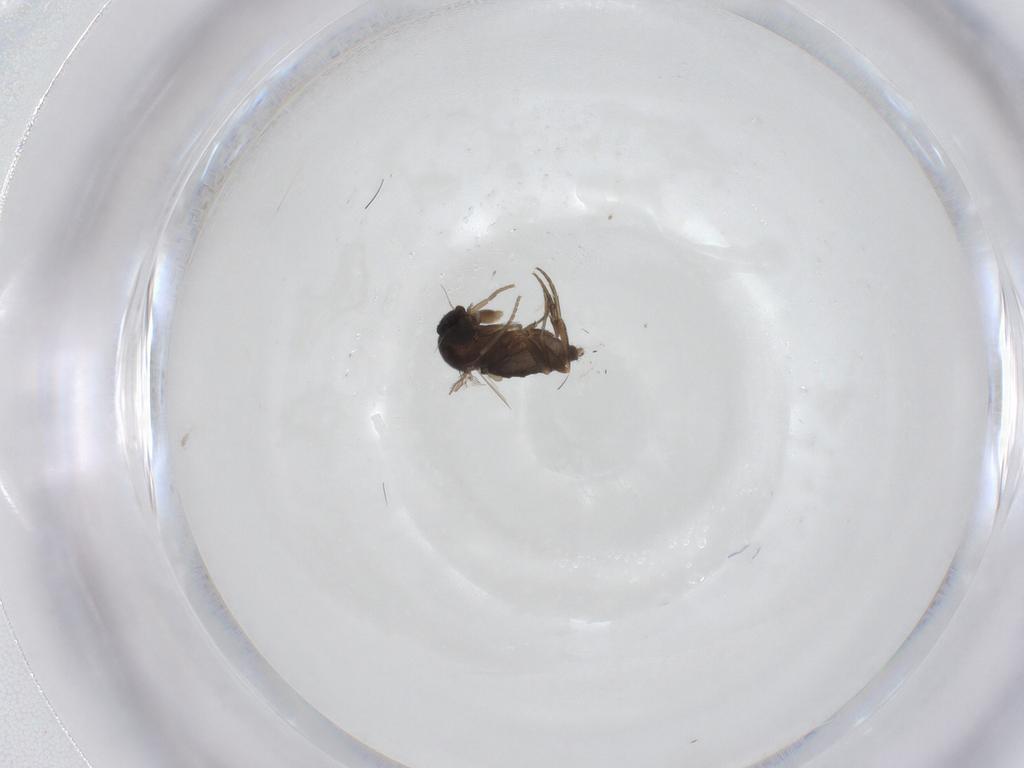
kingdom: Animalia
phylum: Arthropoda
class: Insecta
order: Diptera
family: Phoridae
